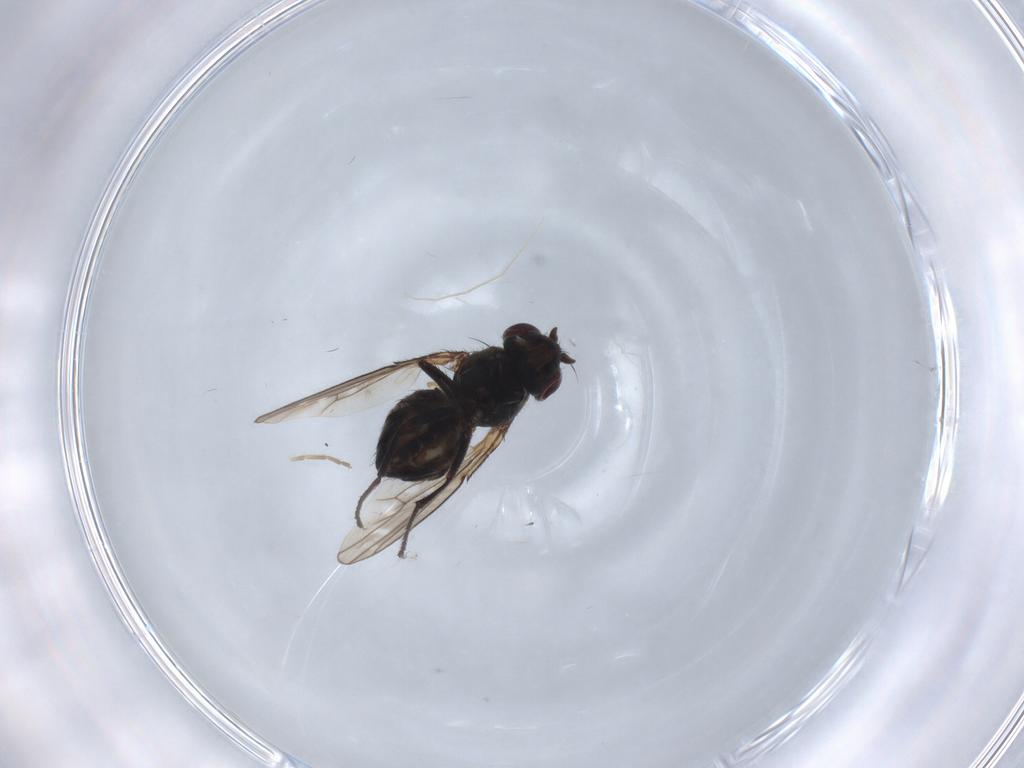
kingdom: Animalia
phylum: Arthropoda
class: Insecta
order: Diptera
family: Ephydridae
